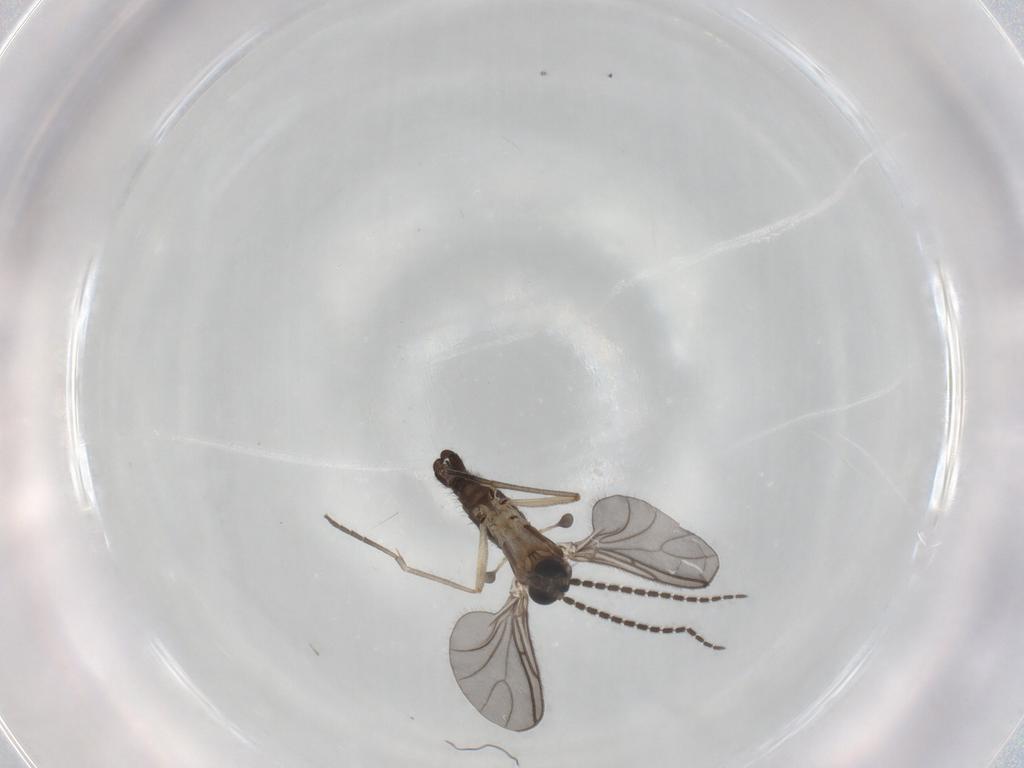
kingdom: Animalia
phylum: Arthropoda
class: Insecta
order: Diptera
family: Sciaridae
